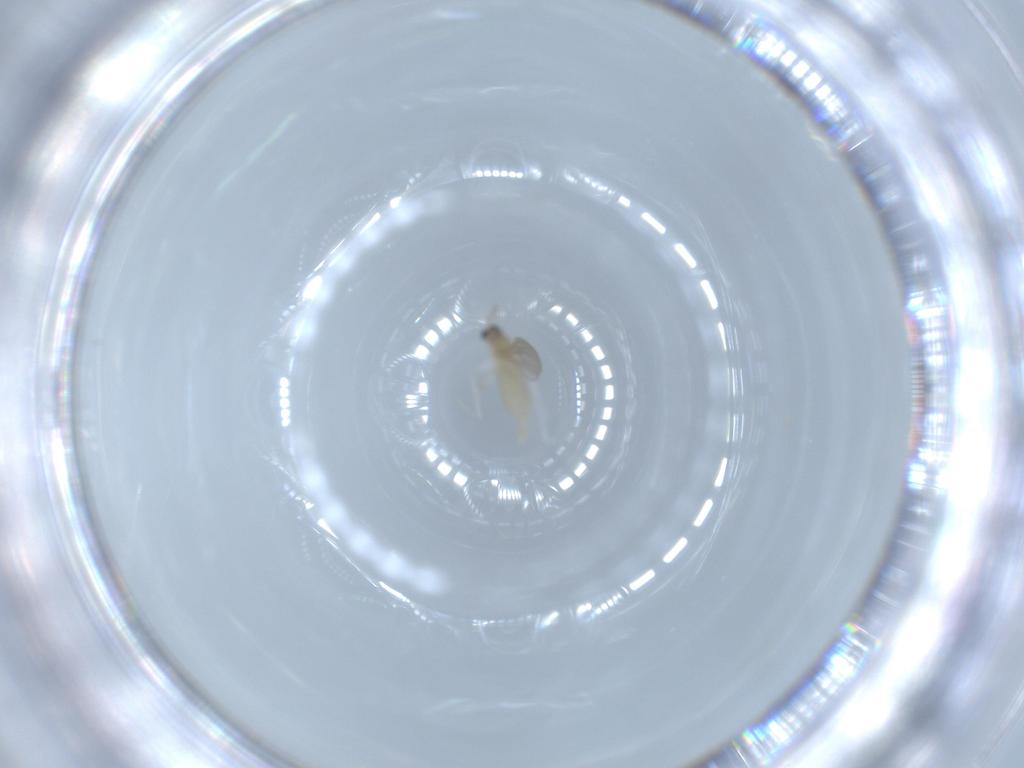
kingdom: Animalia
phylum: Arthropoda
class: Insecta
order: Diptera
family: Cecidomyiidae
